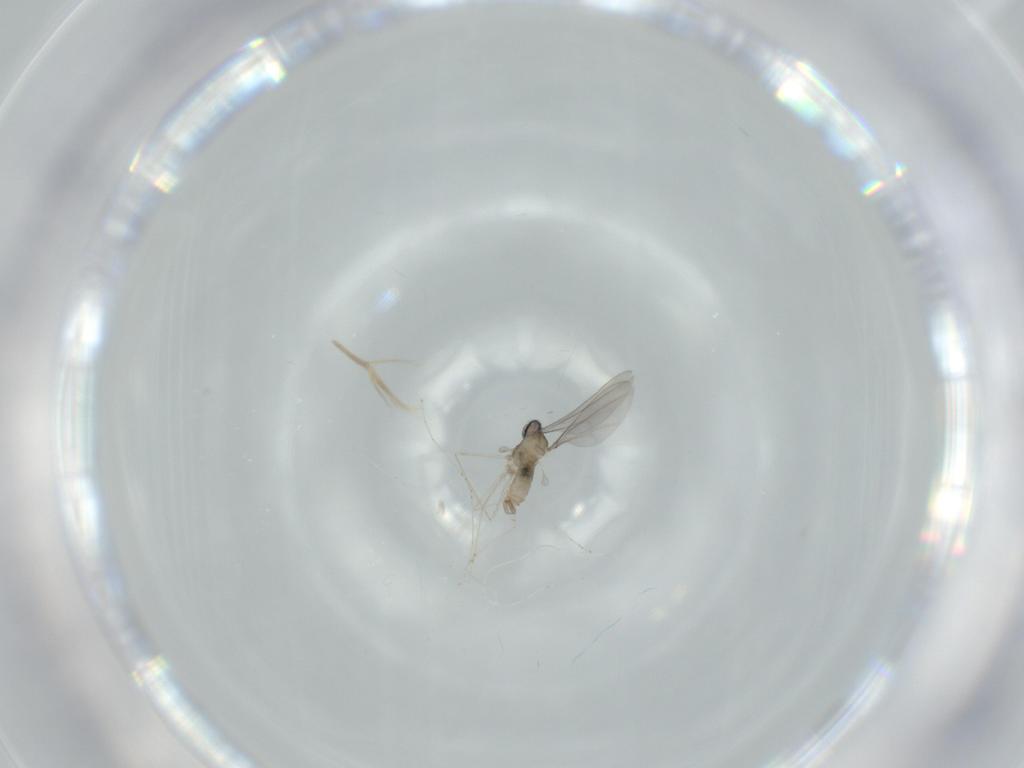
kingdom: Animalia
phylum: Arthropoda
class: Insecta
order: Diptera
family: Cecidomyiidae
